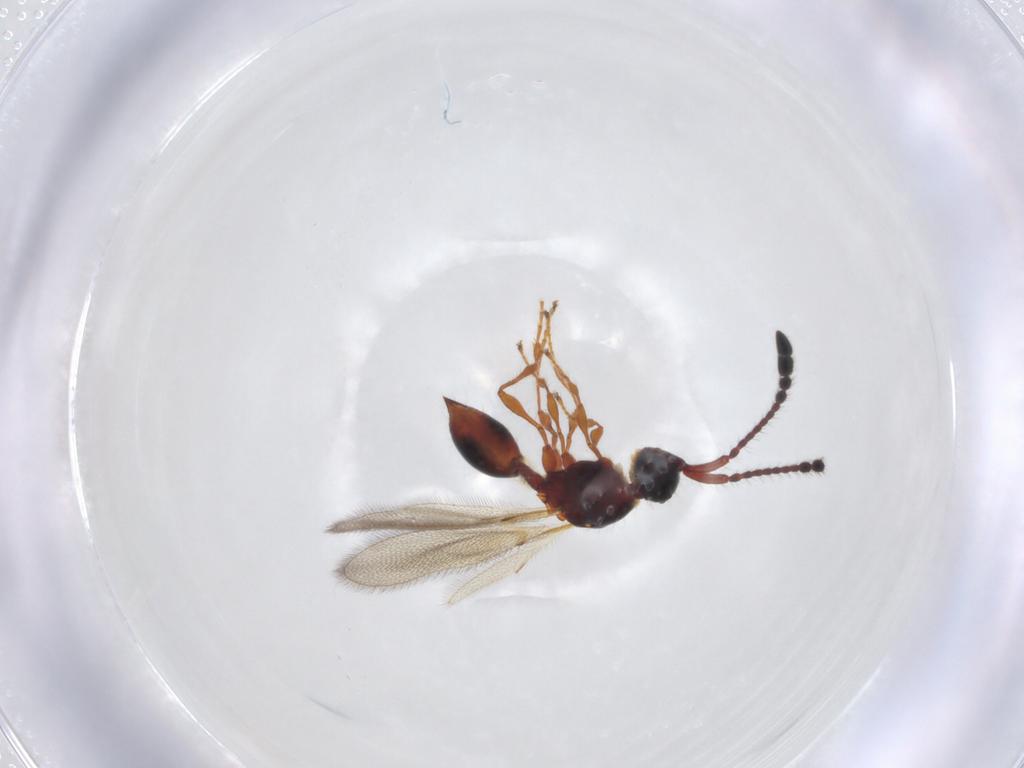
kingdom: Animalia
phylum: Arthropoda
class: Insecta
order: Hymenoptera
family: Diapriidae
